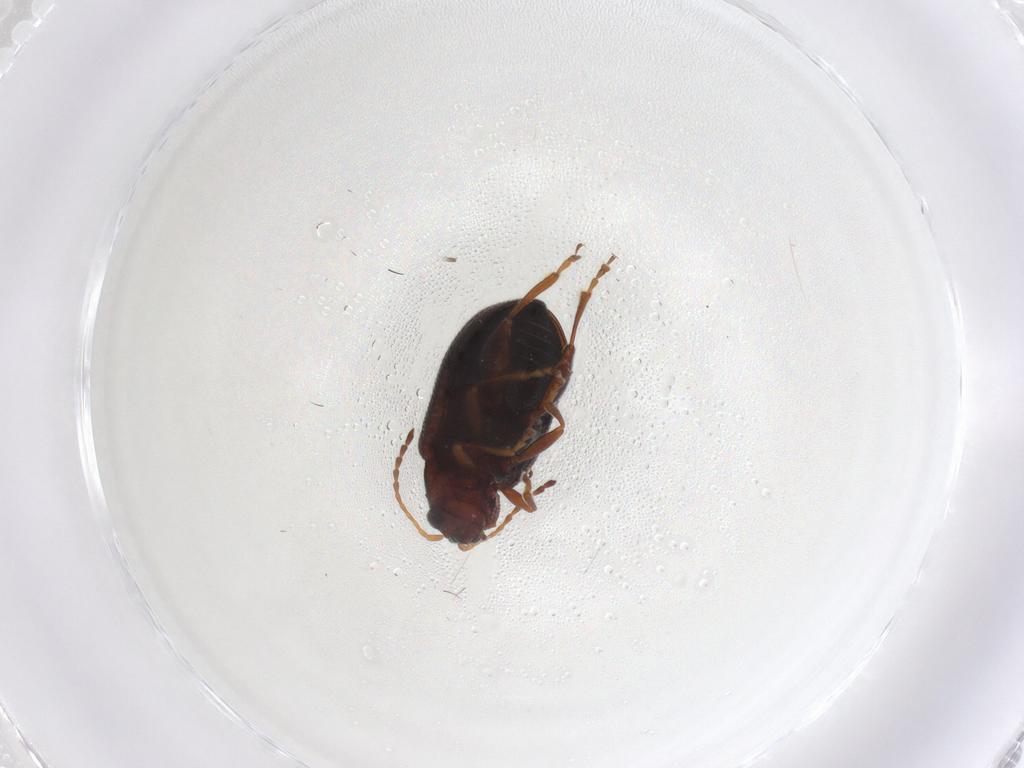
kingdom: Animalia
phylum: Arthropoda
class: Insecta
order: Coleoptera
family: Chrysomelidae
